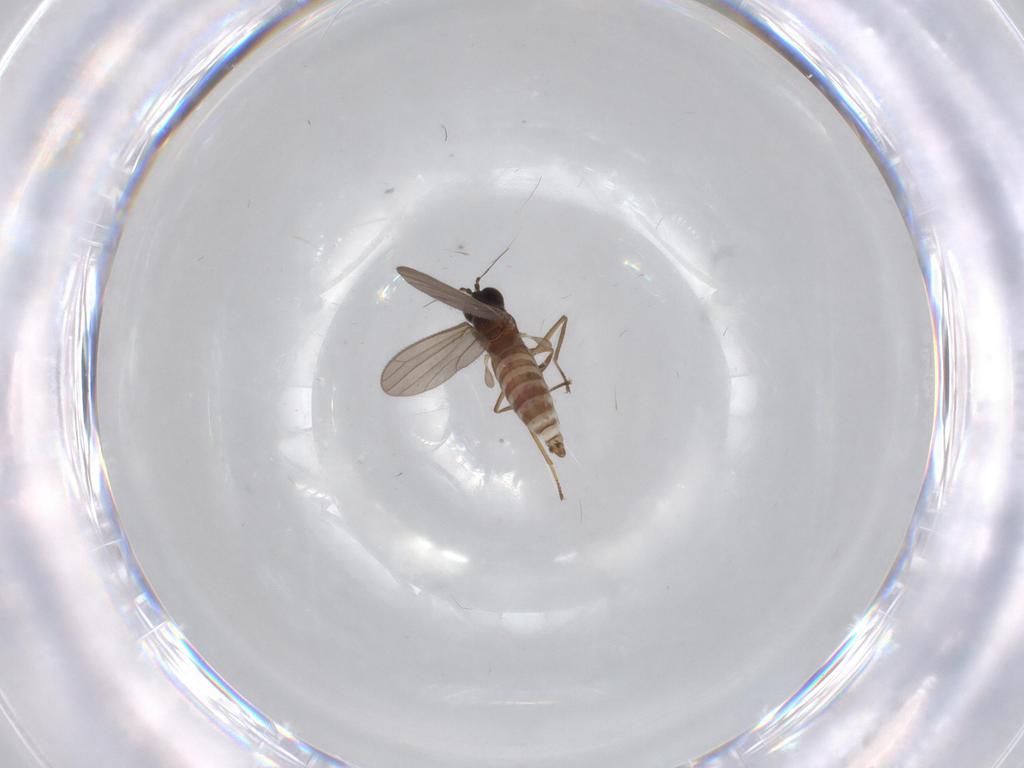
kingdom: Animalia
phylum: Arthropoda
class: Insecta
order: Diptera
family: Empididae
